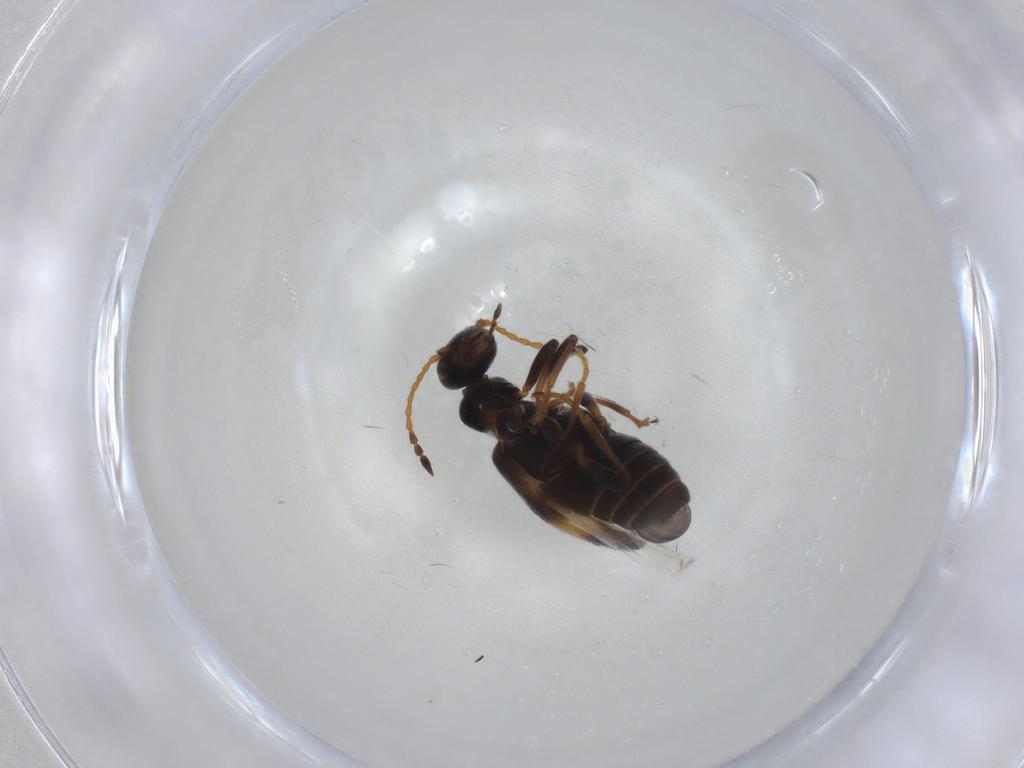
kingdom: Animalia
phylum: Arthropoda
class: Insecta
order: Coleoptera
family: Anthicidae
